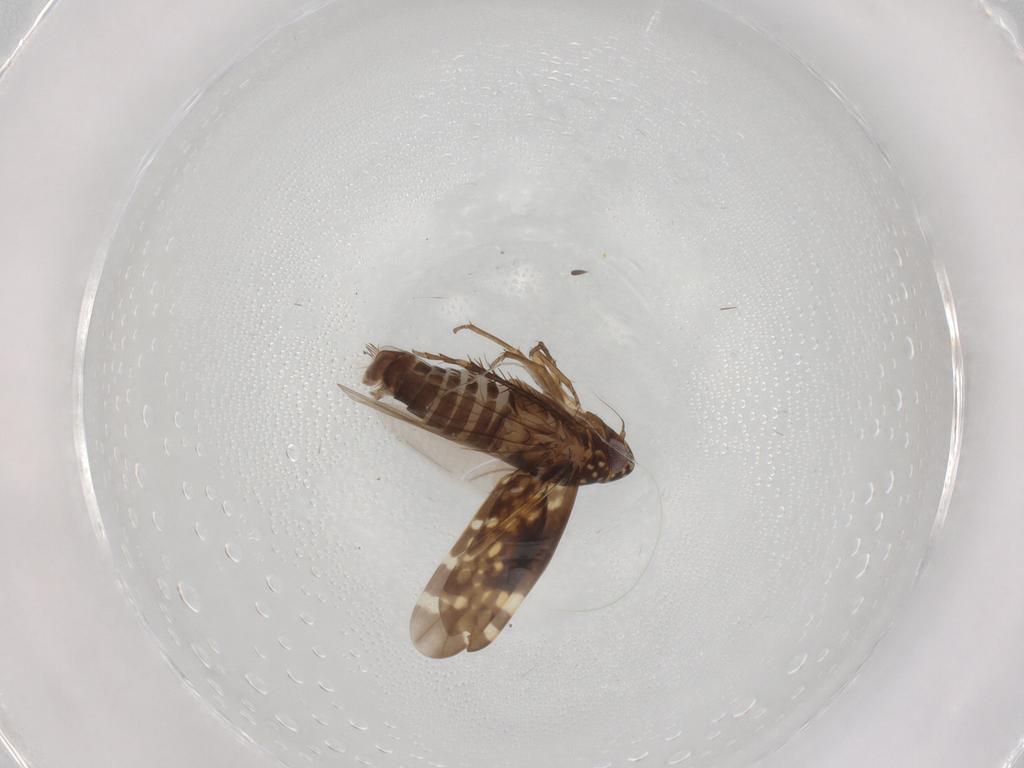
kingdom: Animalia
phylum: Arthropoda
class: Insecta
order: Hemiptera
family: Cicadellidae
